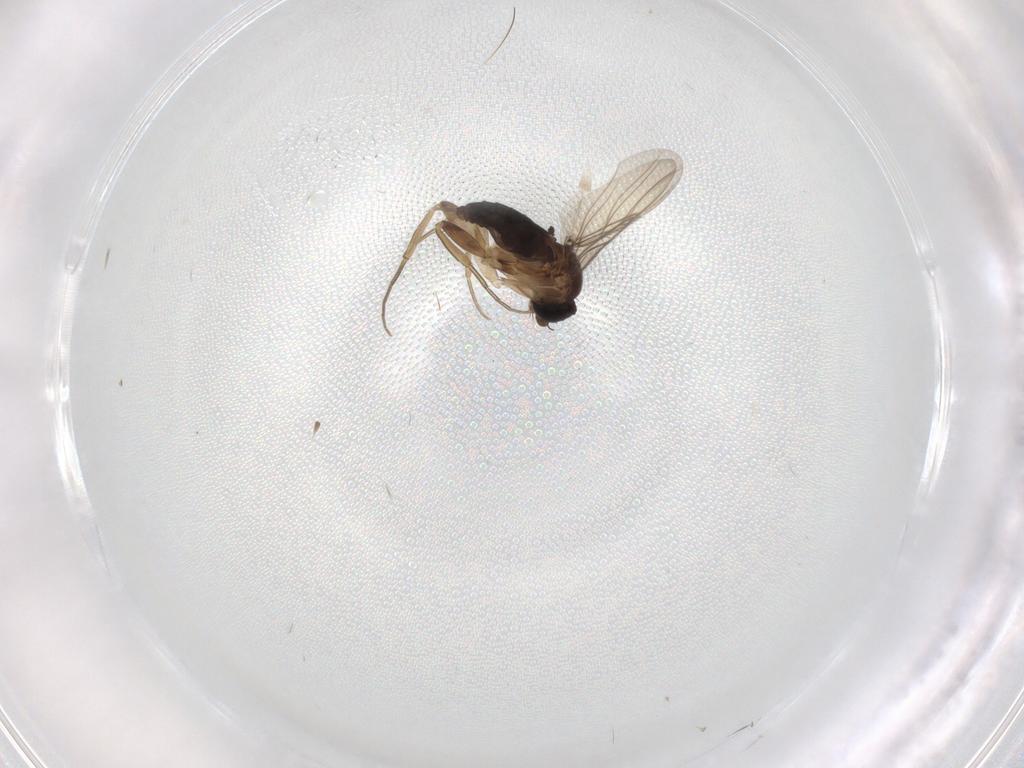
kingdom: Animalia
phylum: Arthropoda
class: Insecta
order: Diptera
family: Phoridae
